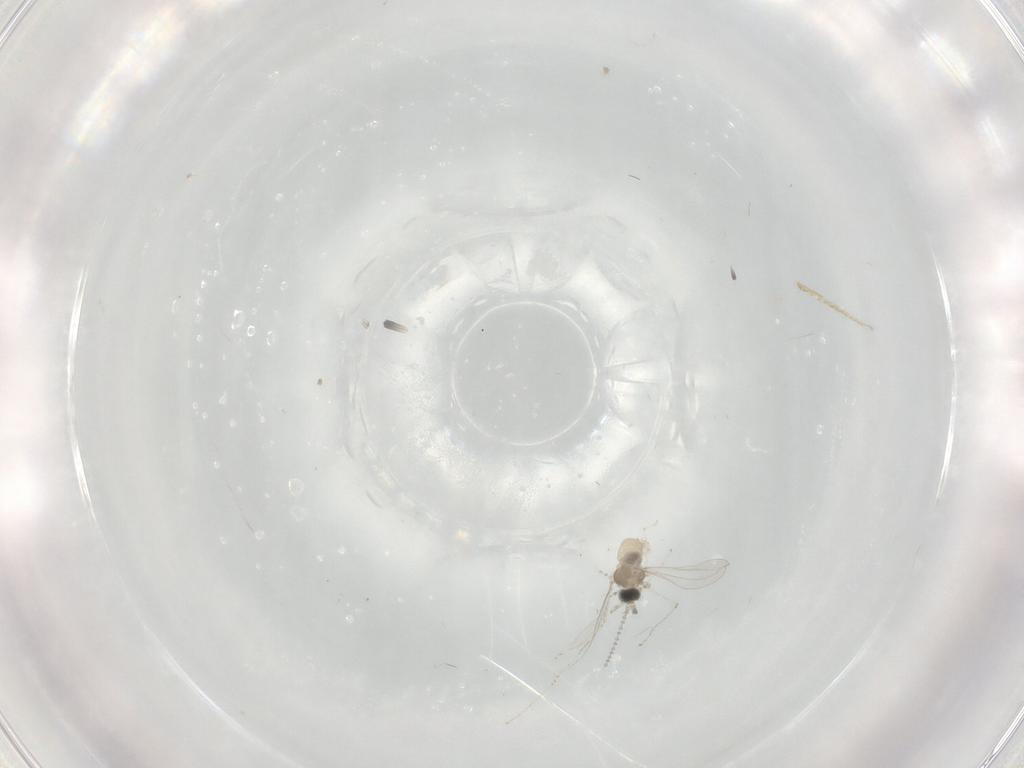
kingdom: Animalia
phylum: Arthropoda
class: Insecta
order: Diptera
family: Cecidomyiidae
